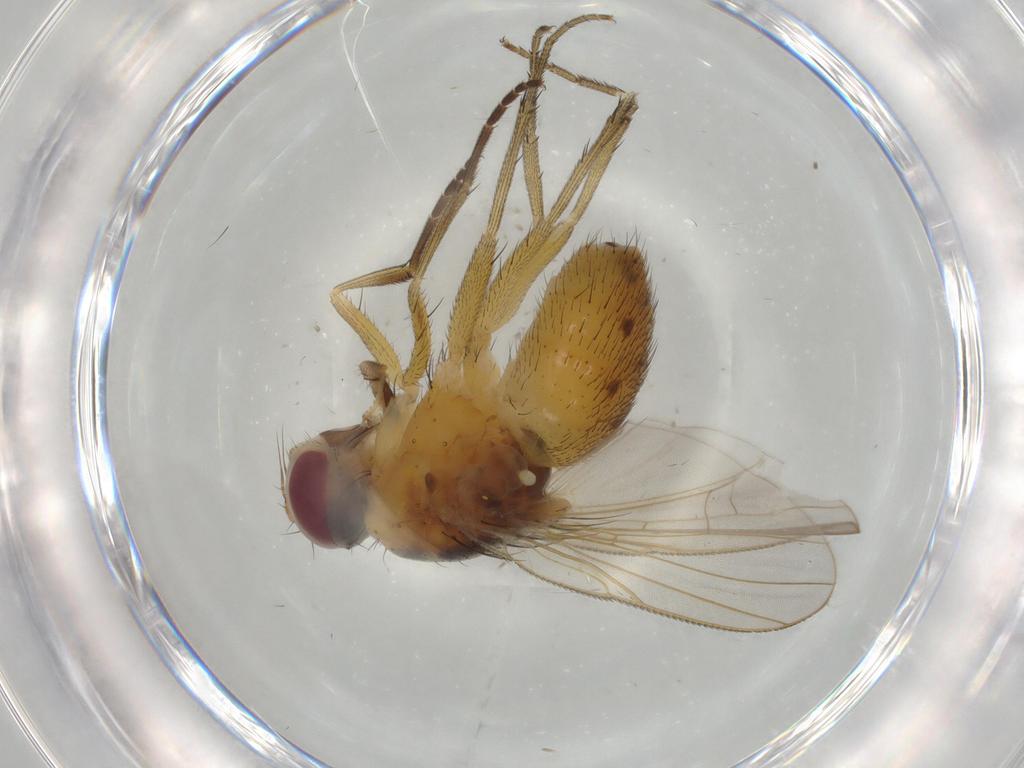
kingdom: Animalia
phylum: Arthropoda
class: Insecta
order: Diptera
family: Muscidae
